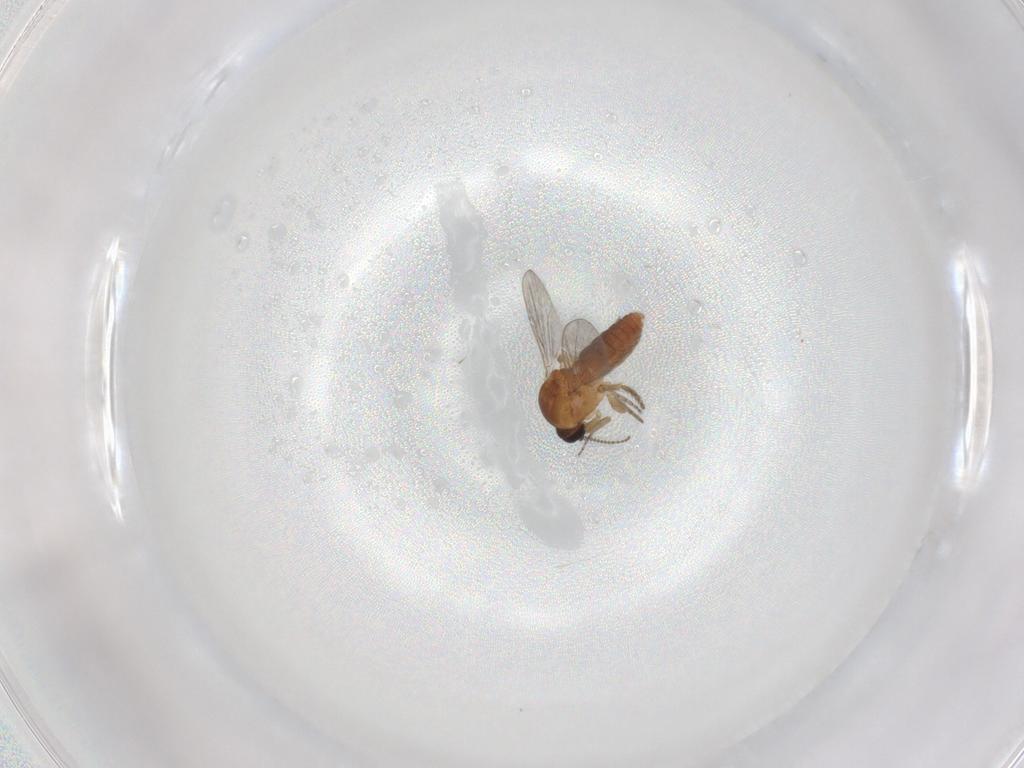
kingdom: Animalia
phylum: Arthropoda
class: Insecta
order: Diptera
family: Ceratopogonidae
